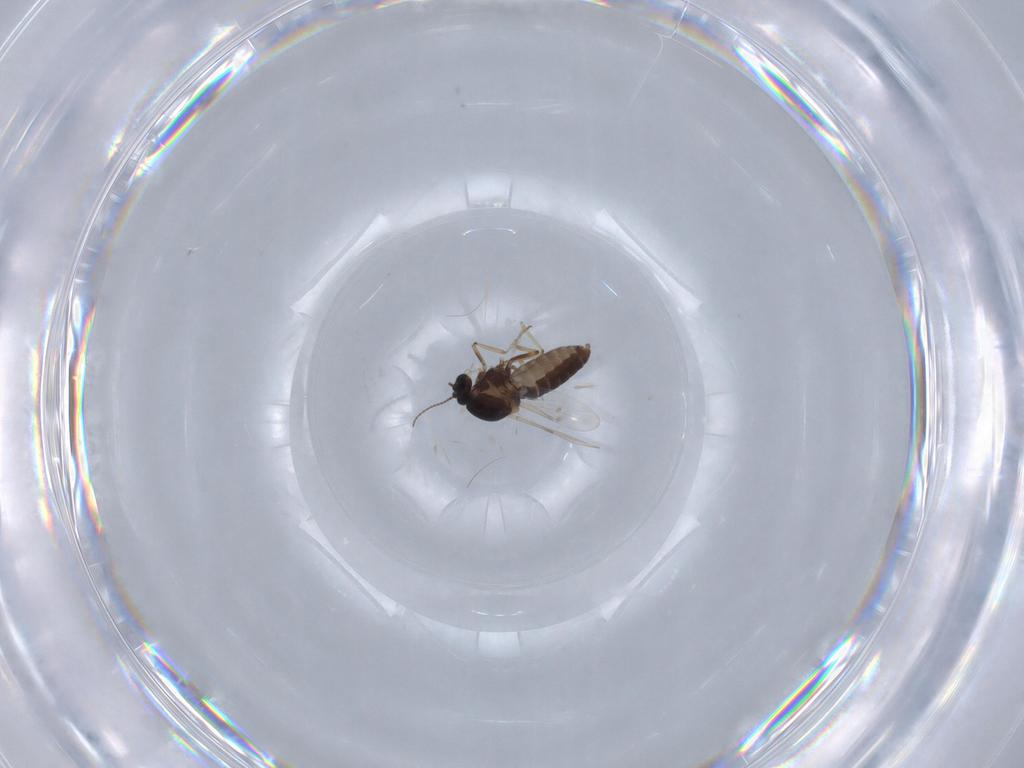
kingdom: Animalia
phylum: Arthropoda
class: Insecta
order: Diptera
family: Ceratopogonidae
